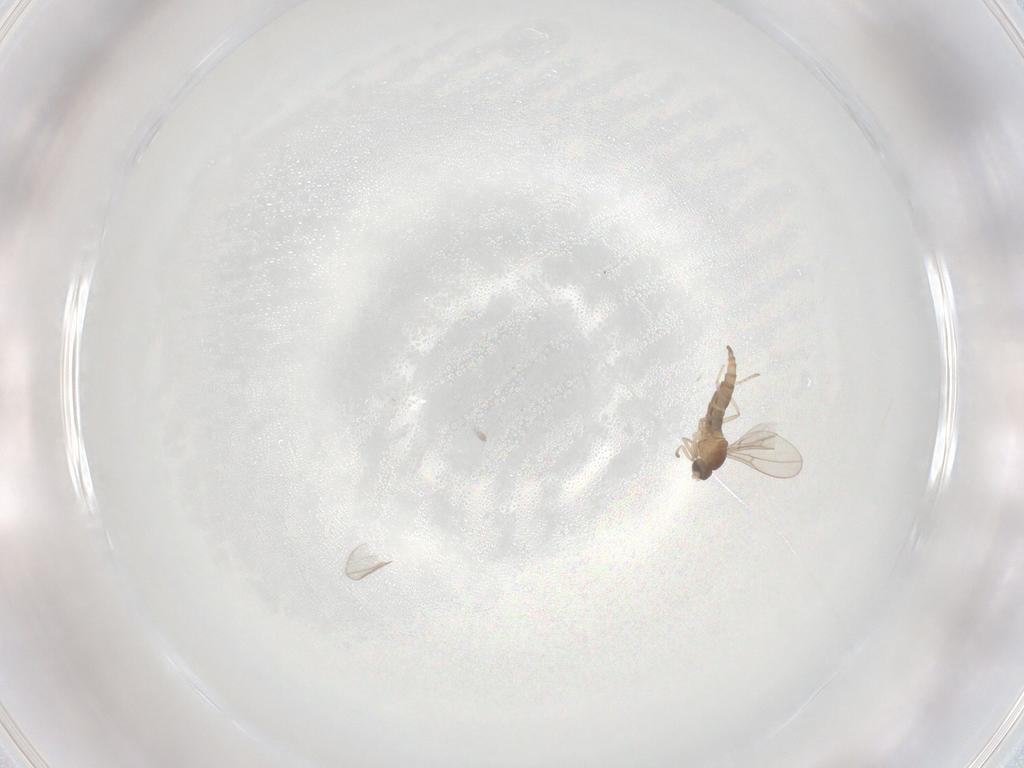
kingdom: Animalia
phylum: Arthropoda
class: Insecta
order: Diptera
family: Cecidomyiidae
